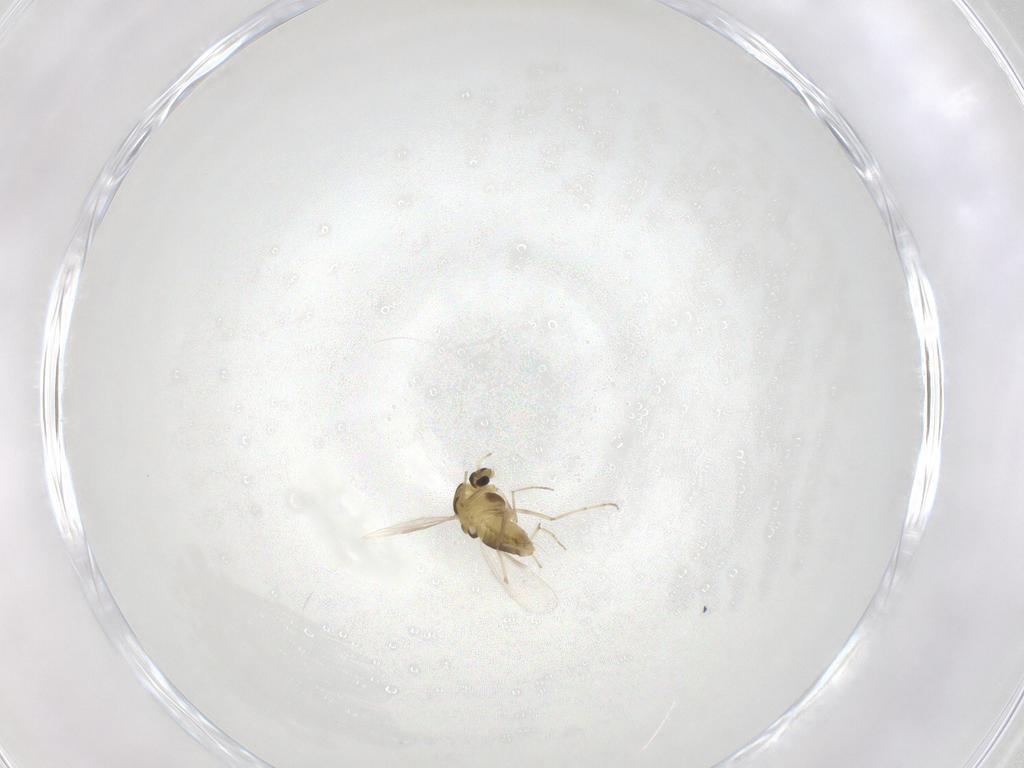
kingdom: Animalia
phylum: Arthropoda
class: Insecta
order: Diptera
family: Chironomidae
